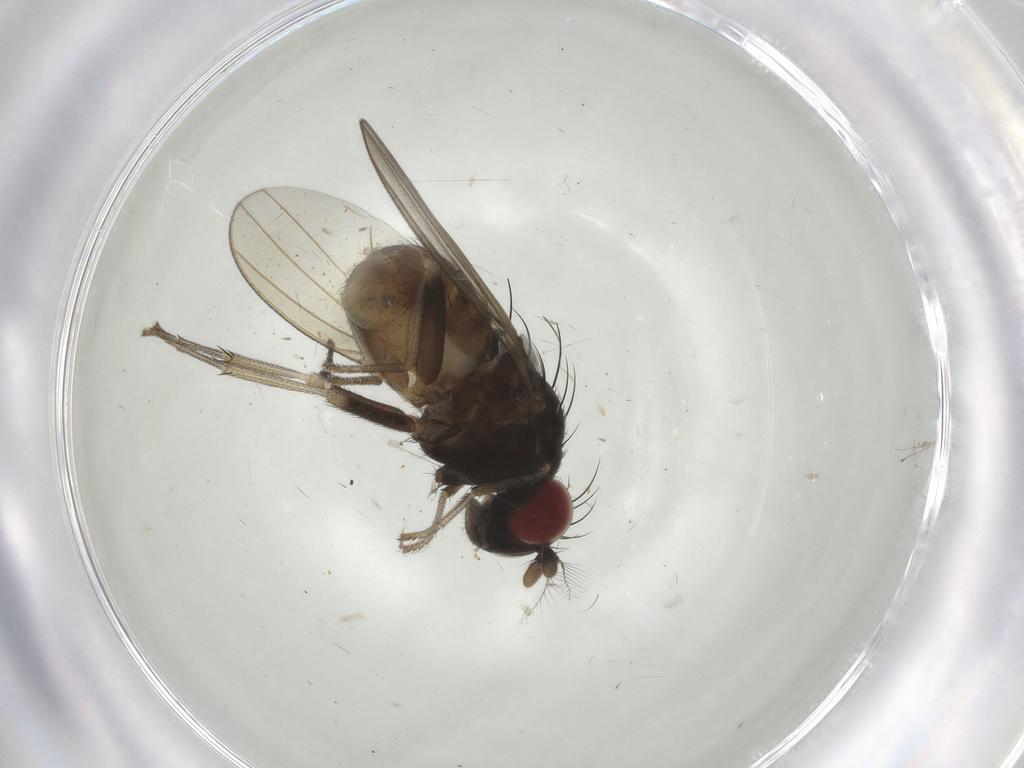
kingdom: Animalia
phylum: Arthropoda
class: Insecta
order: Diptera
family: Lauxaniidae
